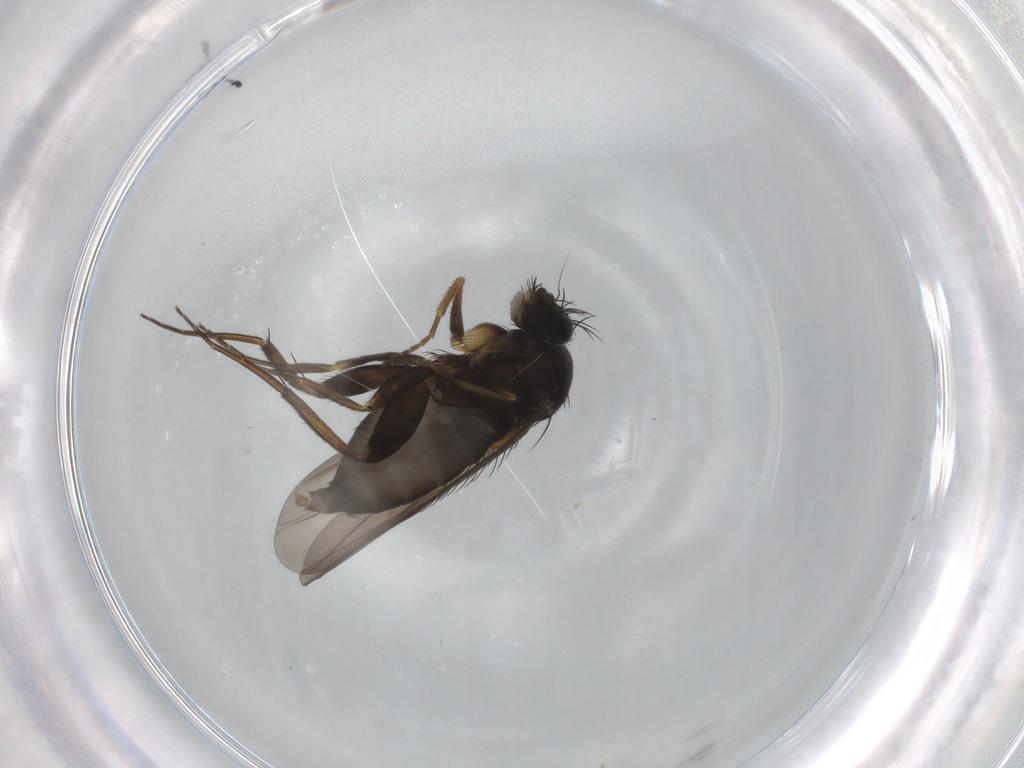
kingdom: Animalia
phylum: Arthropoda
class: Insecta
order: Diptera
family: Phoridae
